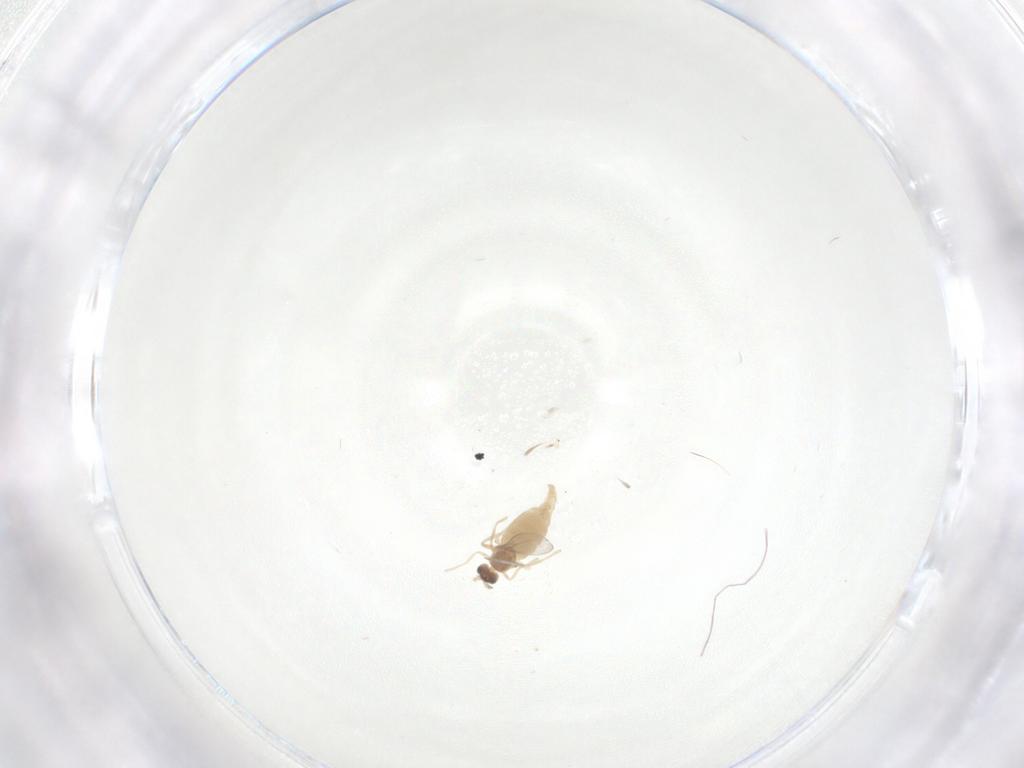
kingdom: Animalia
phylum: Arthropoda
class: Insecta
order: Diptera
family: Cecidomyiidae
